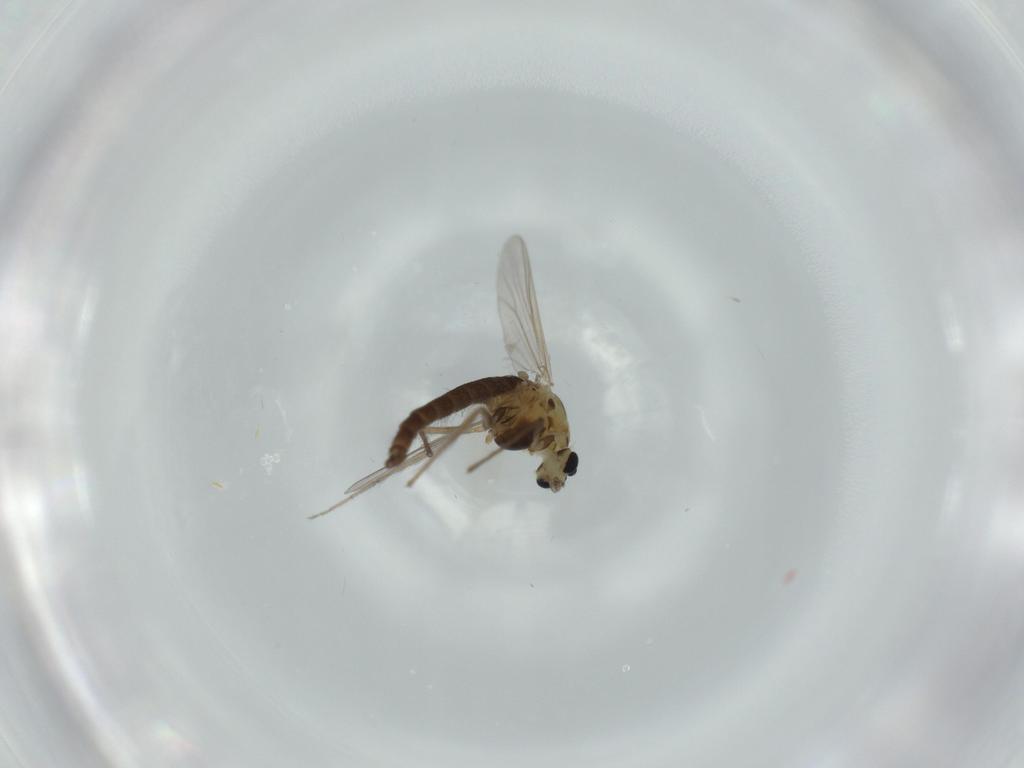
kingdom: Animalia
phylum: Arthropoda
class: Insecta
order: Diptera
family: Chironomidae
